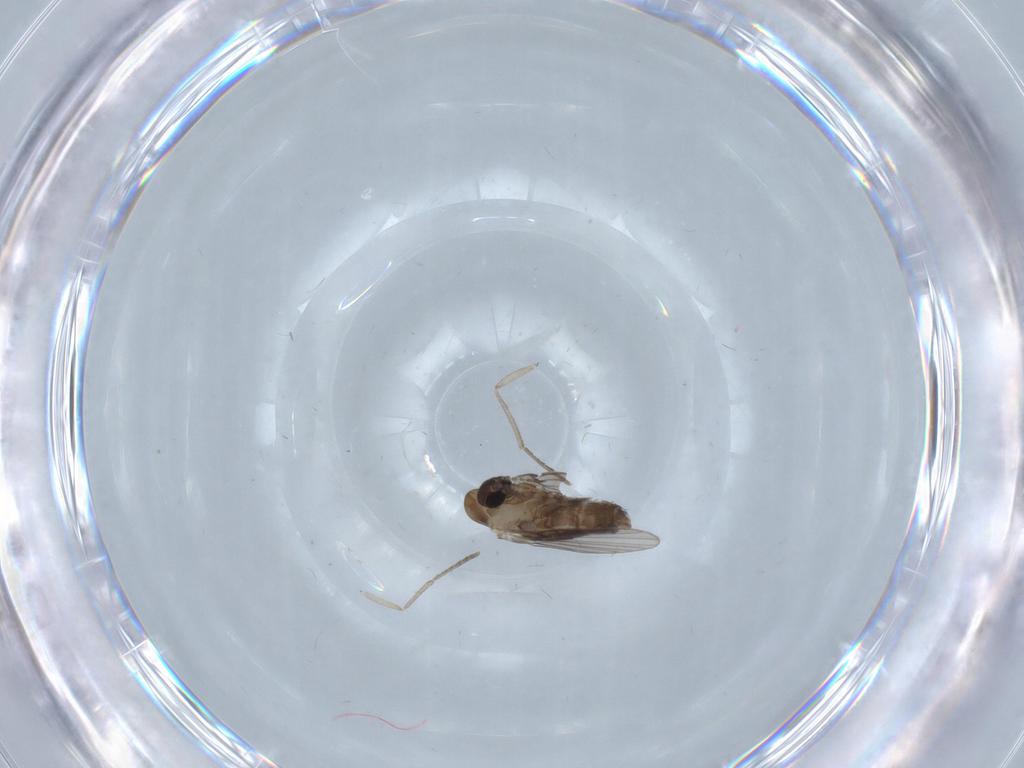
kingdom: Animalia
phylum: Arthropoda
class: Insecta
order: Diptera
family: Psychodidae
